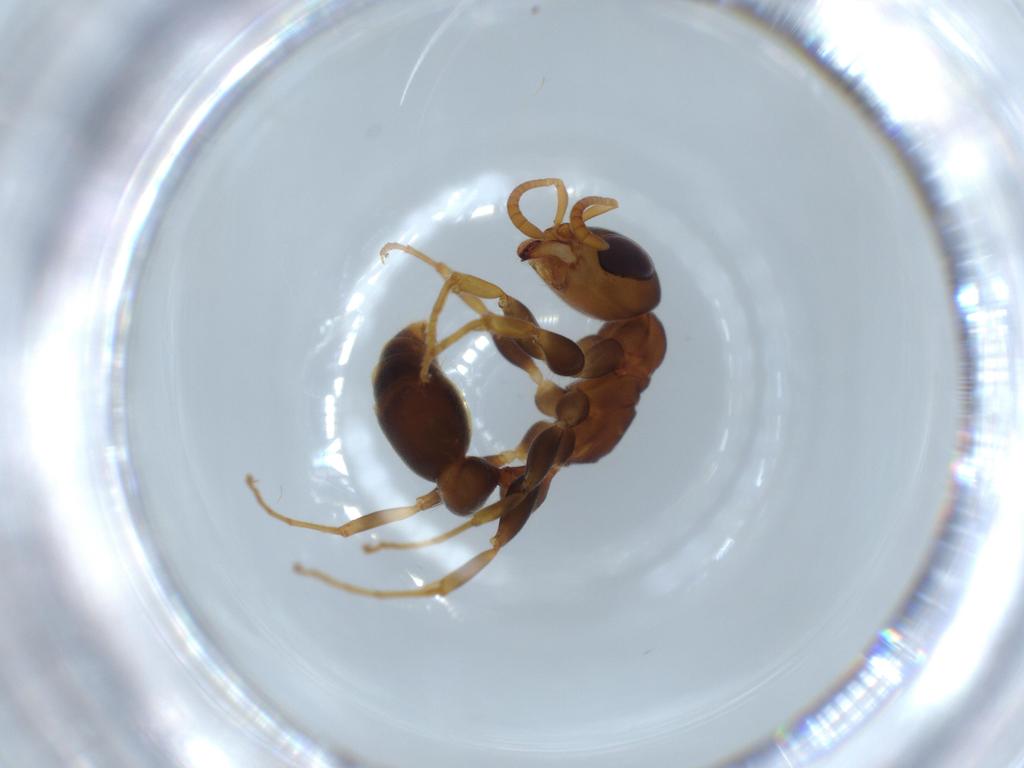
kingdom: Animalia
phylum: Arthropoda
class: Insecta
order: Hymenoptera
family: Formicidae
